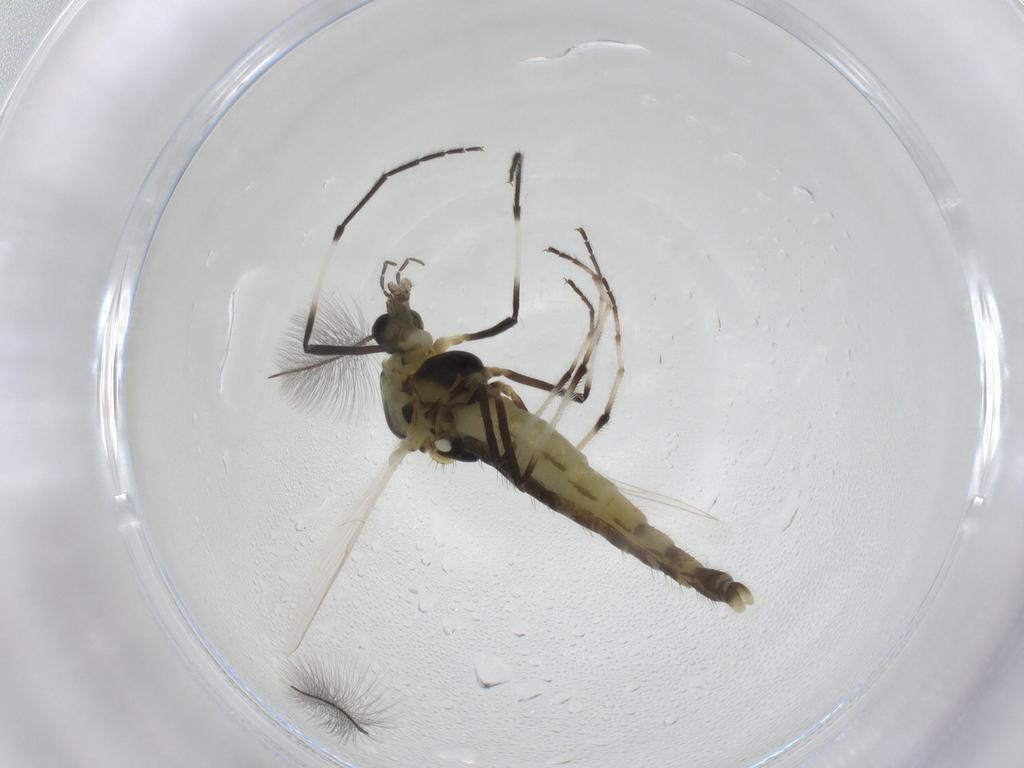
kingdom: Animalia
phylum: Arthropoda
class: Insecta
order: Diptera
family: Chironomidae
